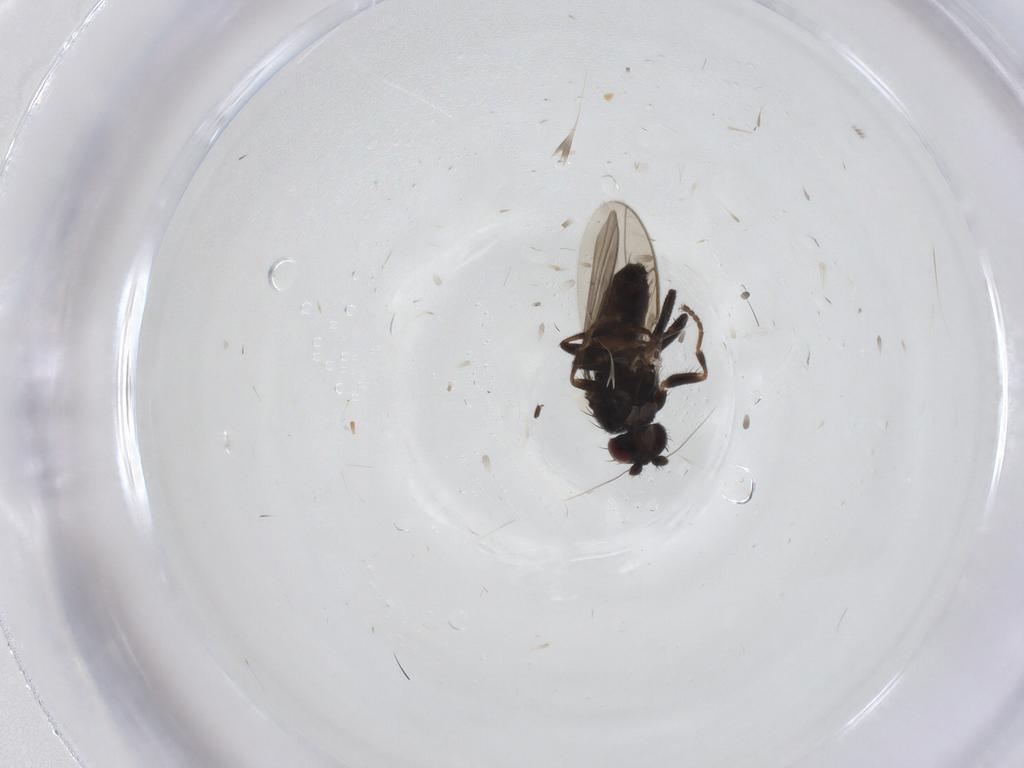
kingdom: Animalia
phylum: Arthropoda
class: Insecta
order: Diptera
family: Sphaeroceridae
